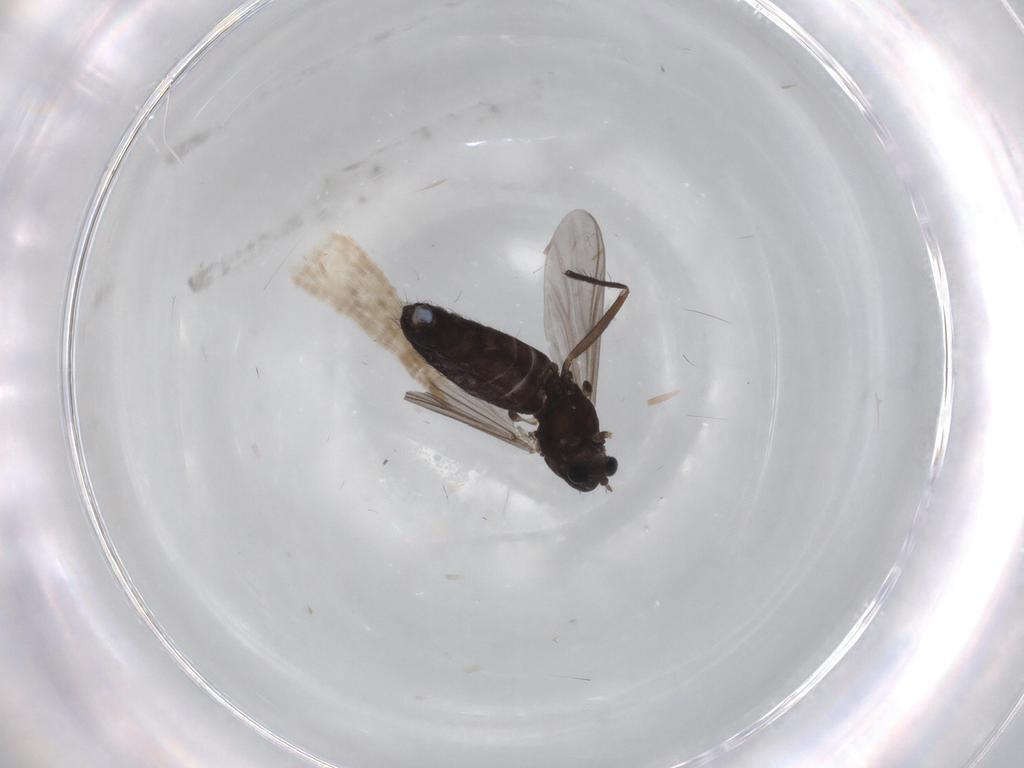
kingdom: Animalia
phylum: Arthropoda
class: Insecta
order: Diptera
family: Chironomidae
